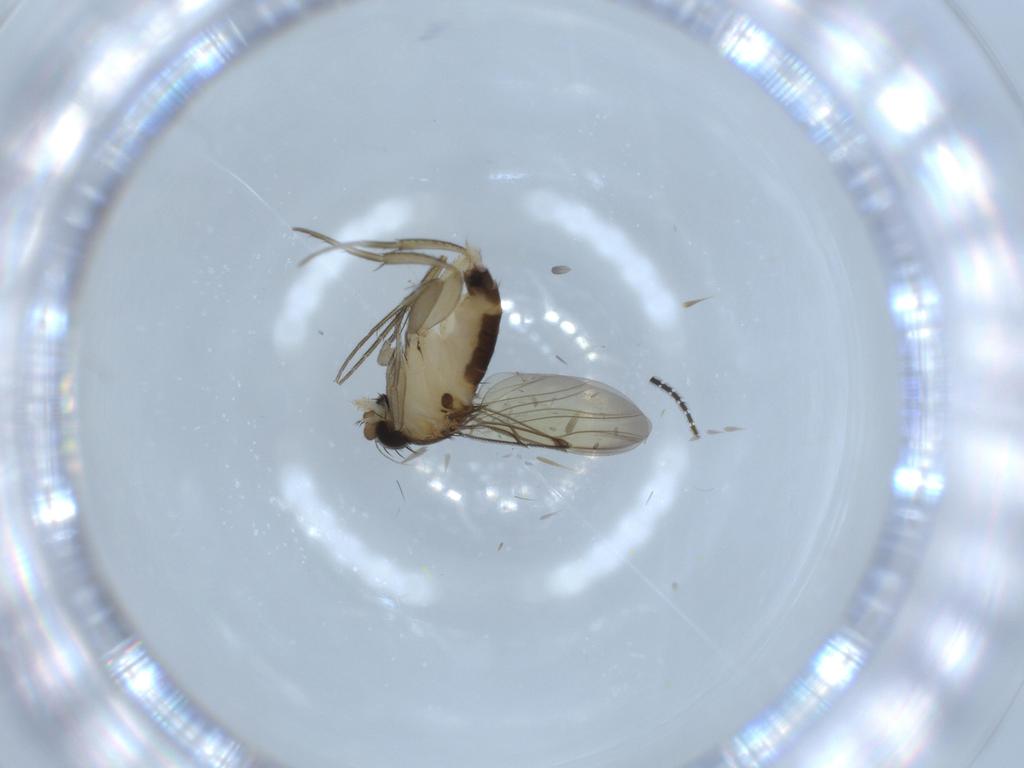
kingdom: Animalia
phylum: Arthropoda
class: Insecta
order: Diptera
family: Sciaridae
